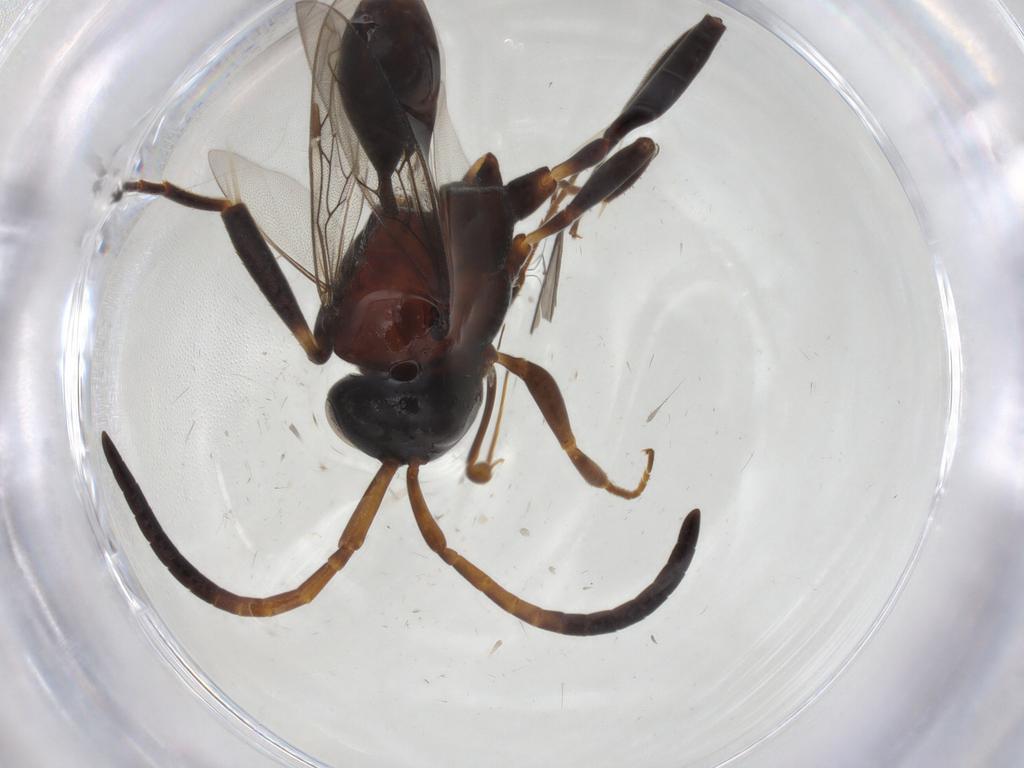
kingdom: Animalia
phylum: Arthropoda
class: Insecta
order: Hymenoptera
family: Evaniidae
